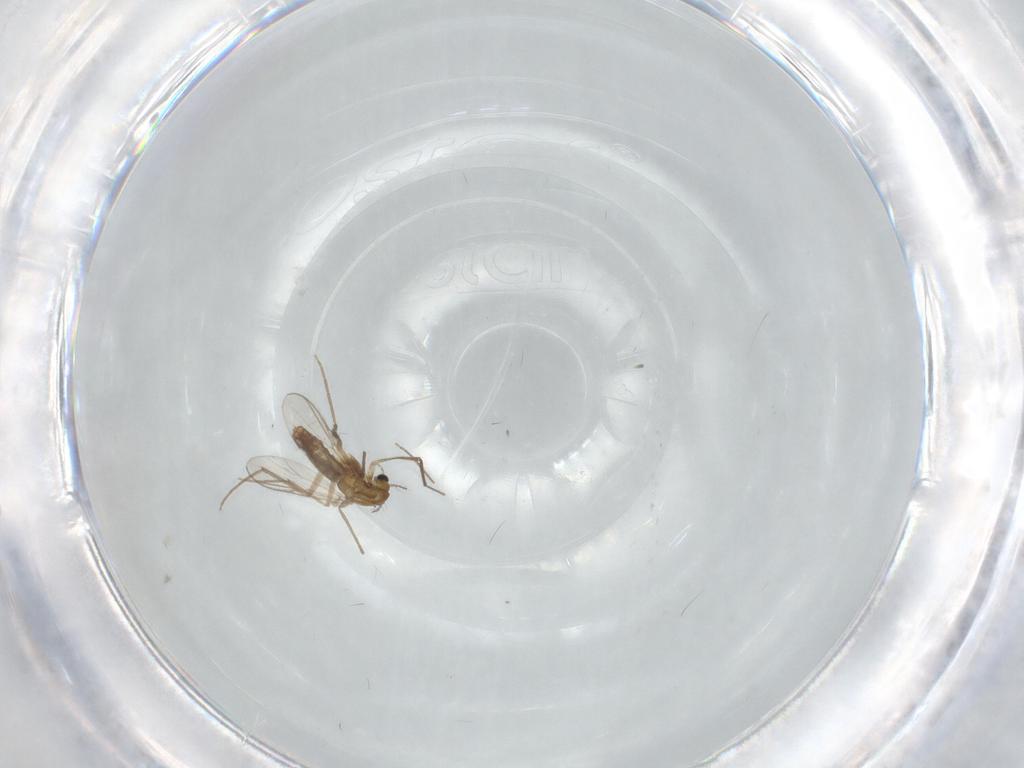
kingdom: Animalia
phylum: Arthropoda
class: Insecta
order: Diptera
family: Chironomidae
